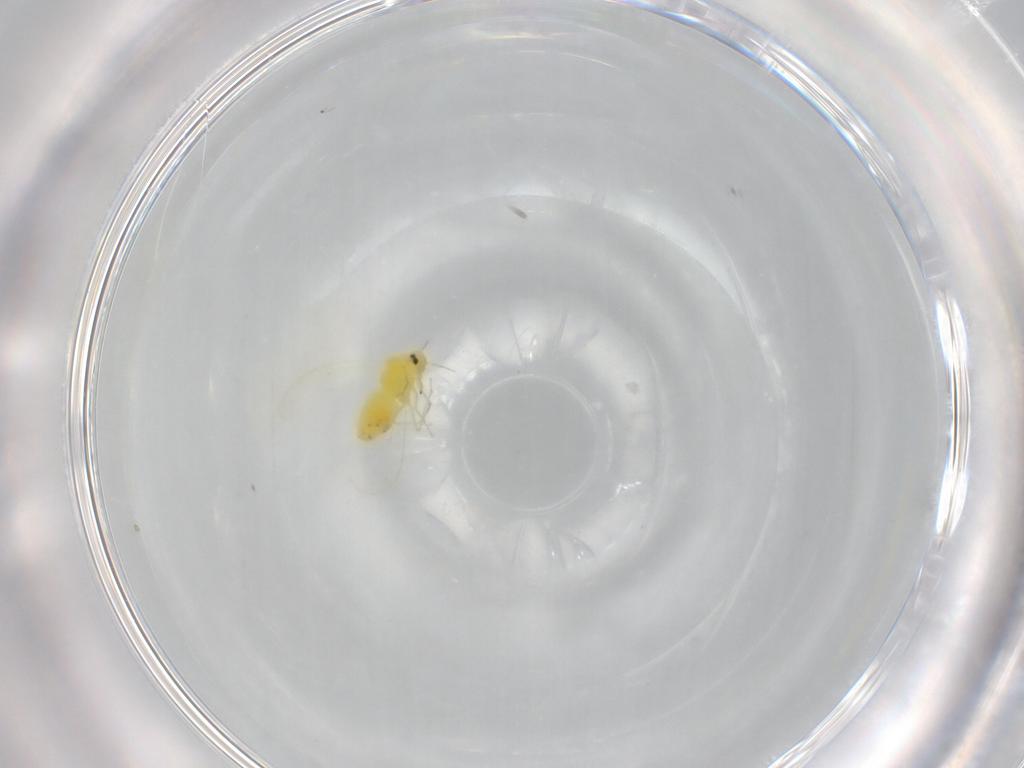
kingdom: Animalia
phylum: Arthropoda
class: Insecta
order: Hemiptera
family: Aleyrodidae
